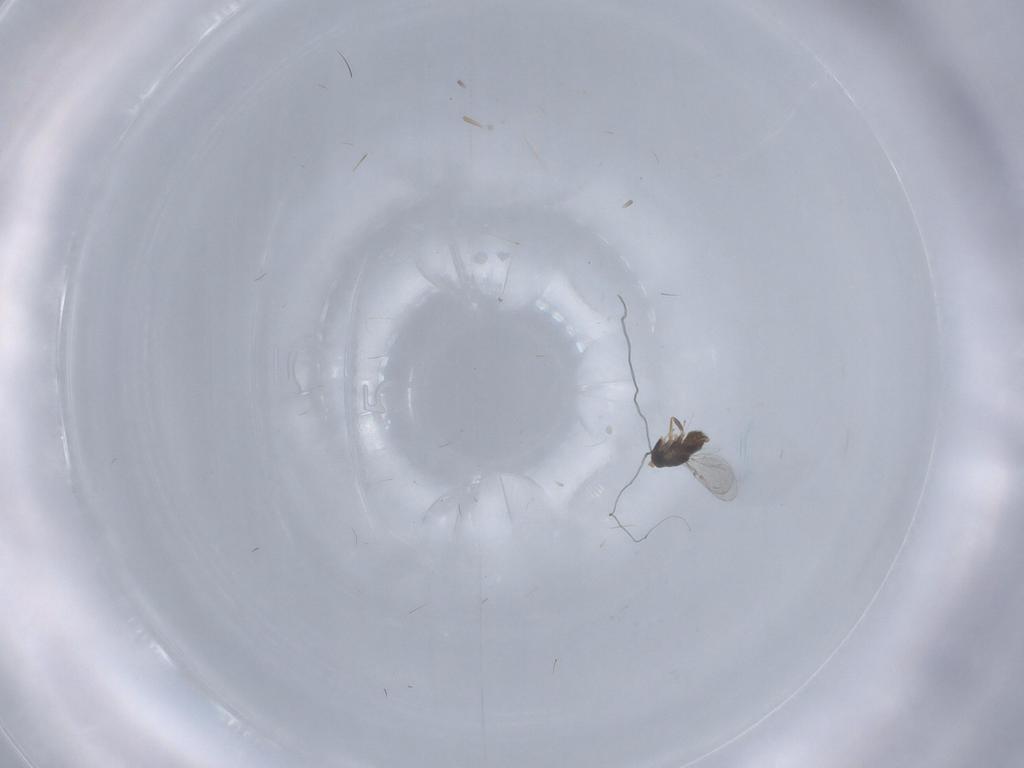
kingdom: Animalia
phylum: Arthropoda
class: Insecta
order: Hymenoptera
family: Encyrtidae
